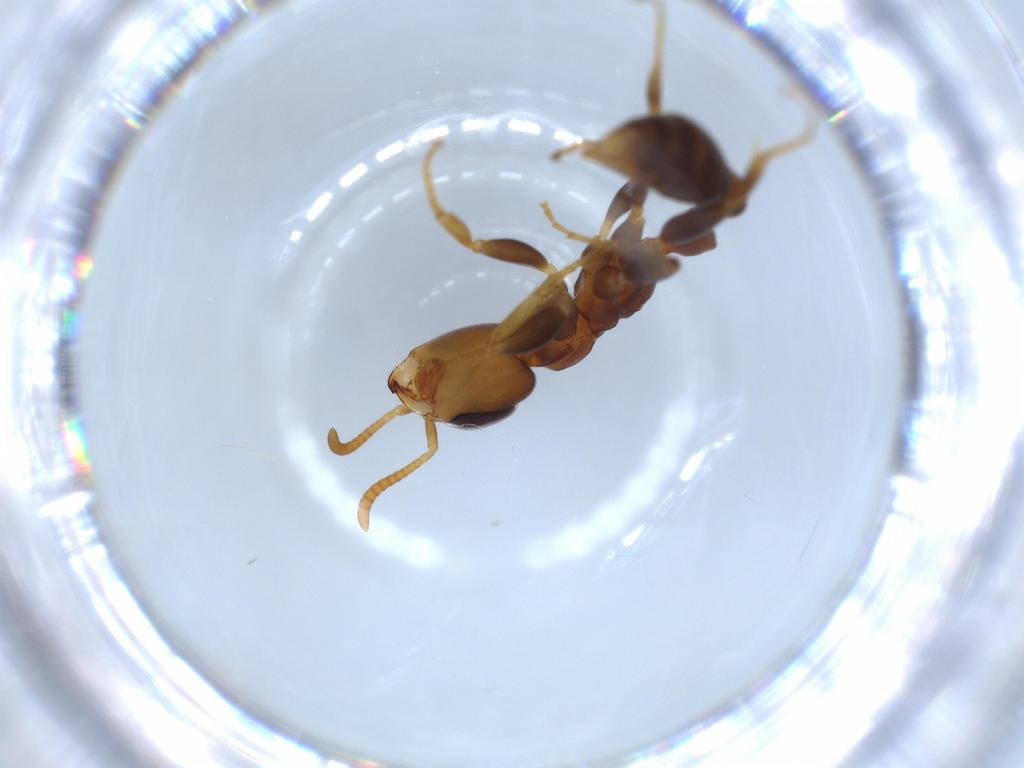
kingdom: Animalia
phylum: Arthropoda
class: Insecta
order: Hymenoptera
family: Formicidae
